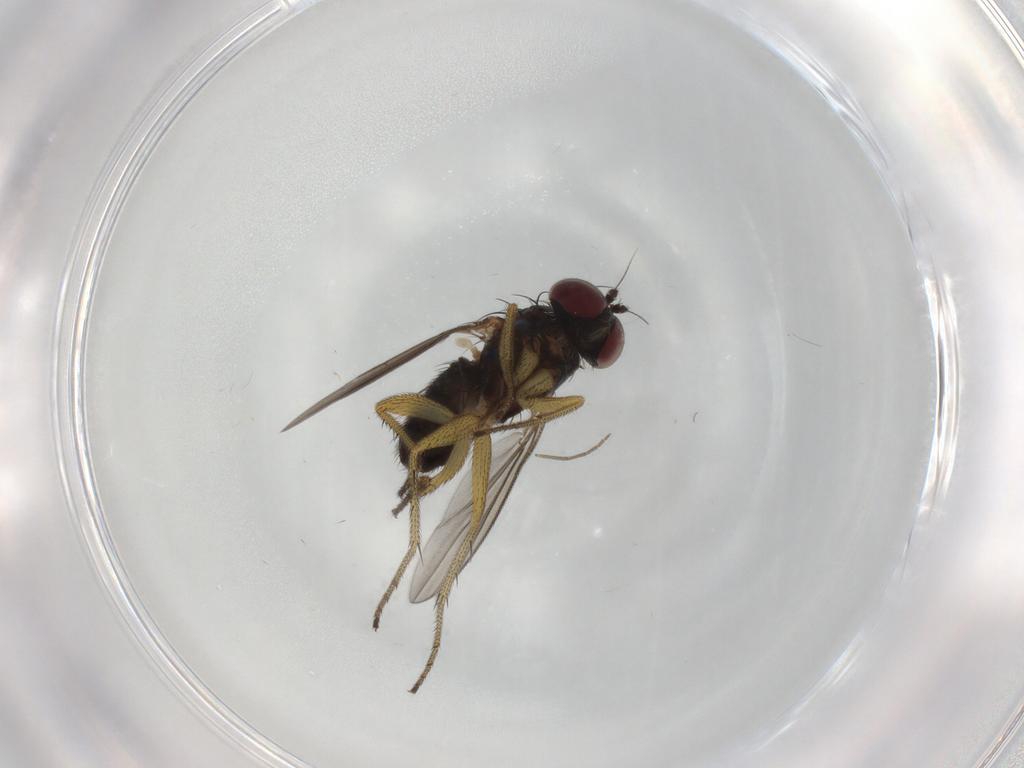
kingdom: Animalia
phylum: Arthropoda
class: Insecta
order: Diptera
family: Dolichopodidae
